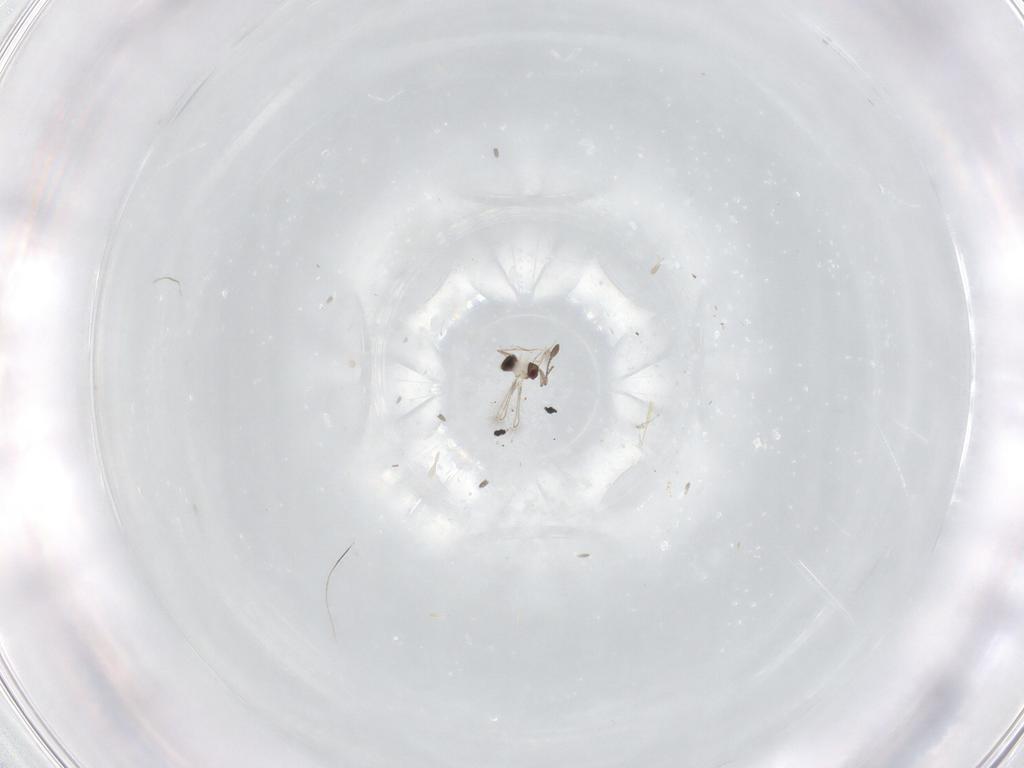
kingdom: Animalia
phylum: Arthropoda
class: Insecta
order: Hymenoptera
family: Mymaridae
